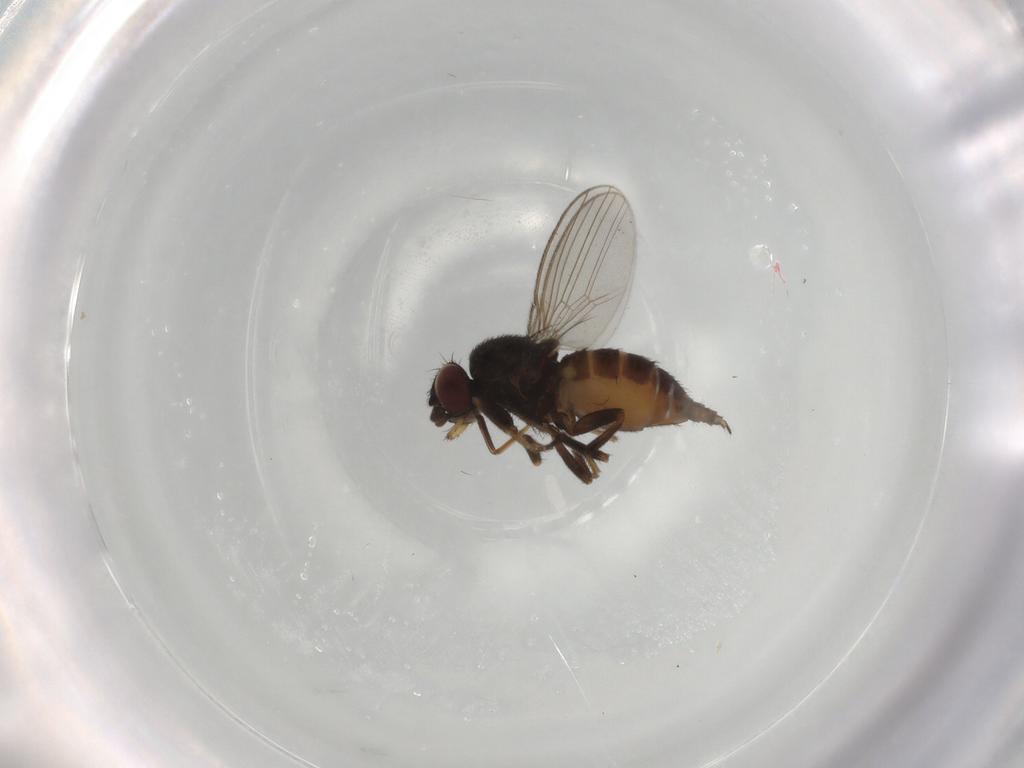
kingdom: Animalia
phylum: Arthropoda
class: Insecta
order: Diptera
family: Milichiidae
